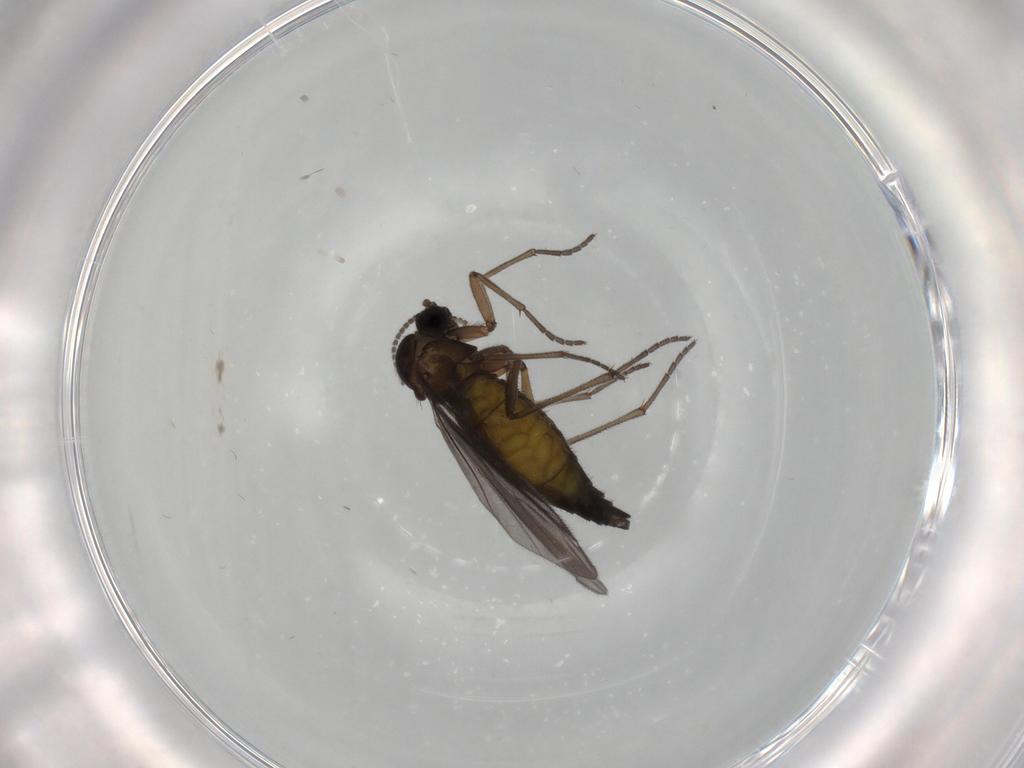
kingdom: Animalia
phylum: Arthropoda
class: Insecta
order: Diptera
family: Sciaridae
